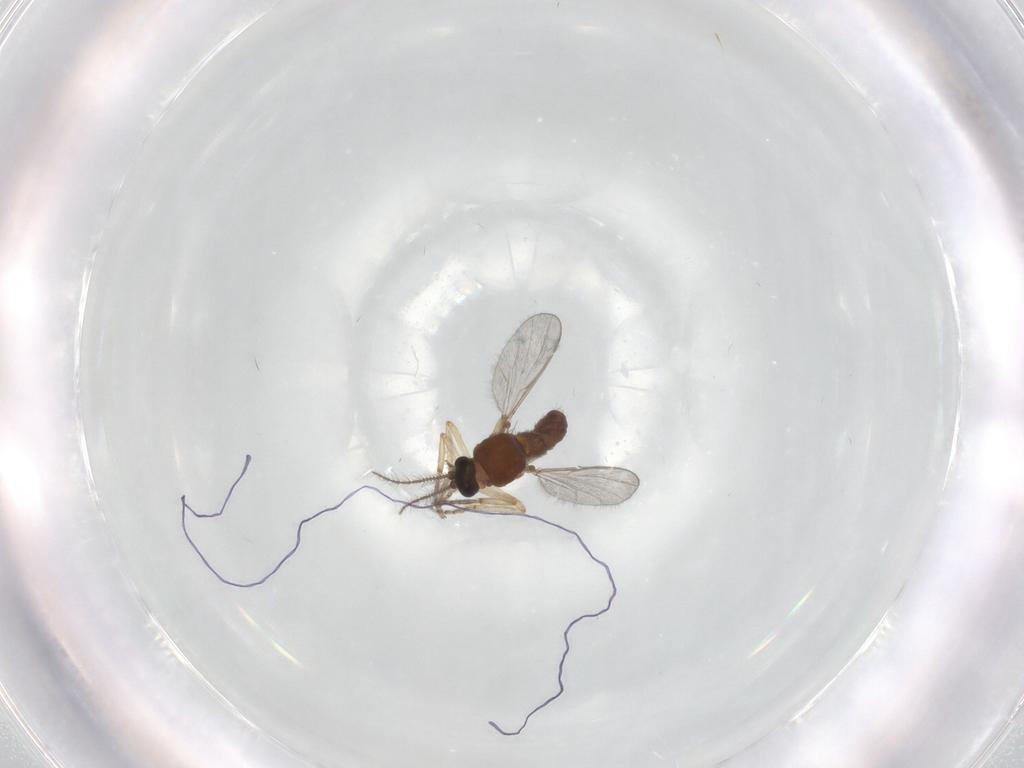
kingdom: Animalia
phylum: Arthropoda
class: Insecta
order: Diptera
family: Ceratopogonidae
